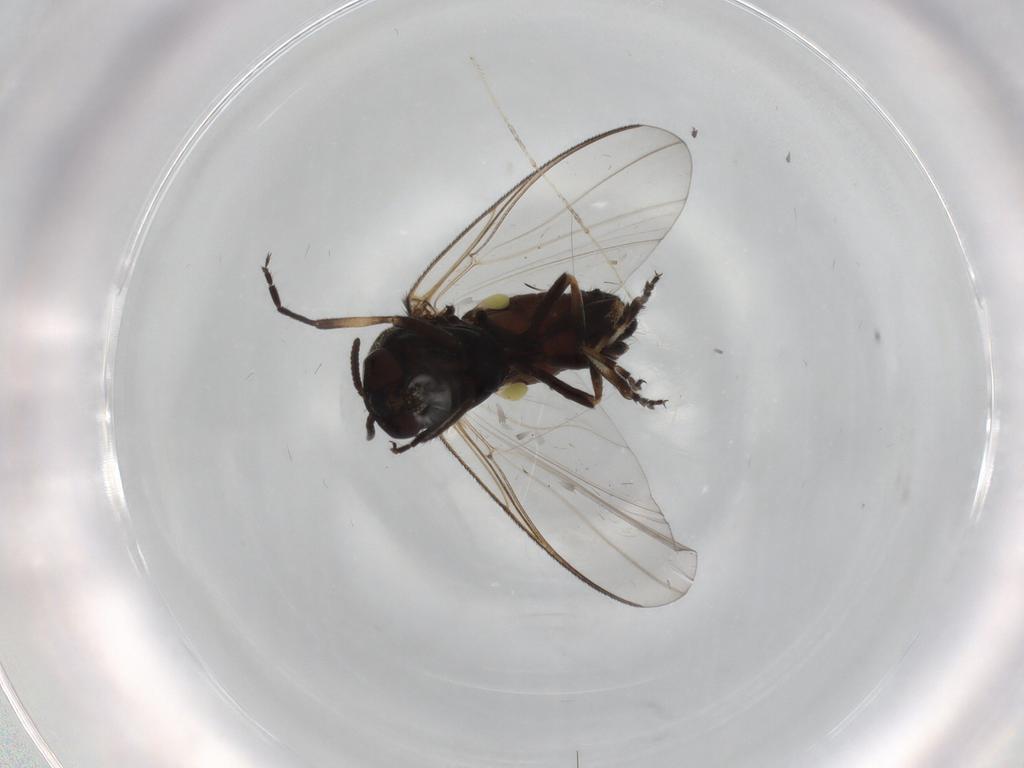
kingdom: Animalia
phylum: Arthropoda
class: Insecta
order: Diptera
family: Phoridae
